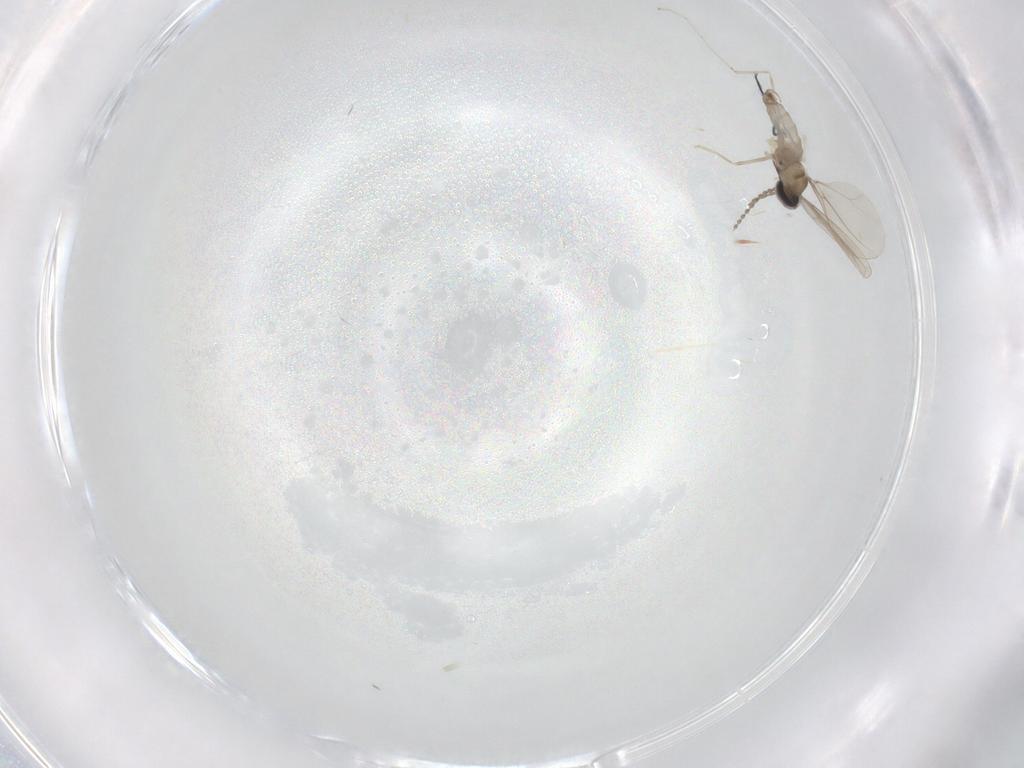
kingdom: Animalia
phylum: Arthropoda
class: Insecta
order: Diptera
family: Cecidomyiidae
